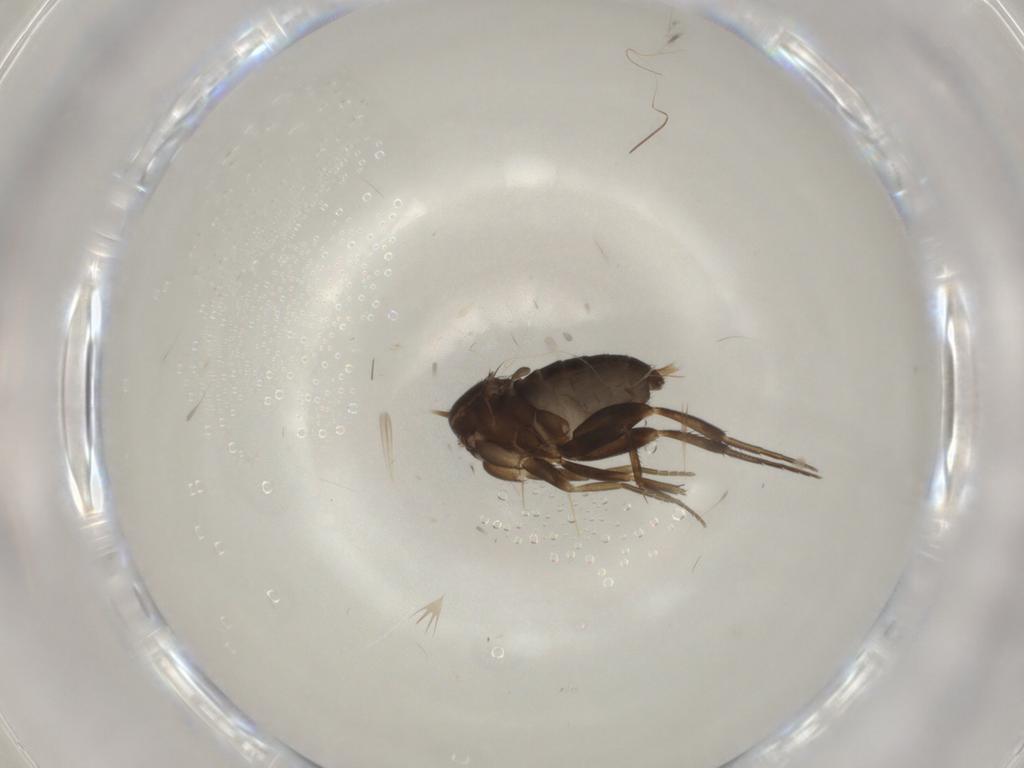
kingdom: Animalia
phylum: Arthropoda
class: Insecta
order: Diptera
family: Phoridae
